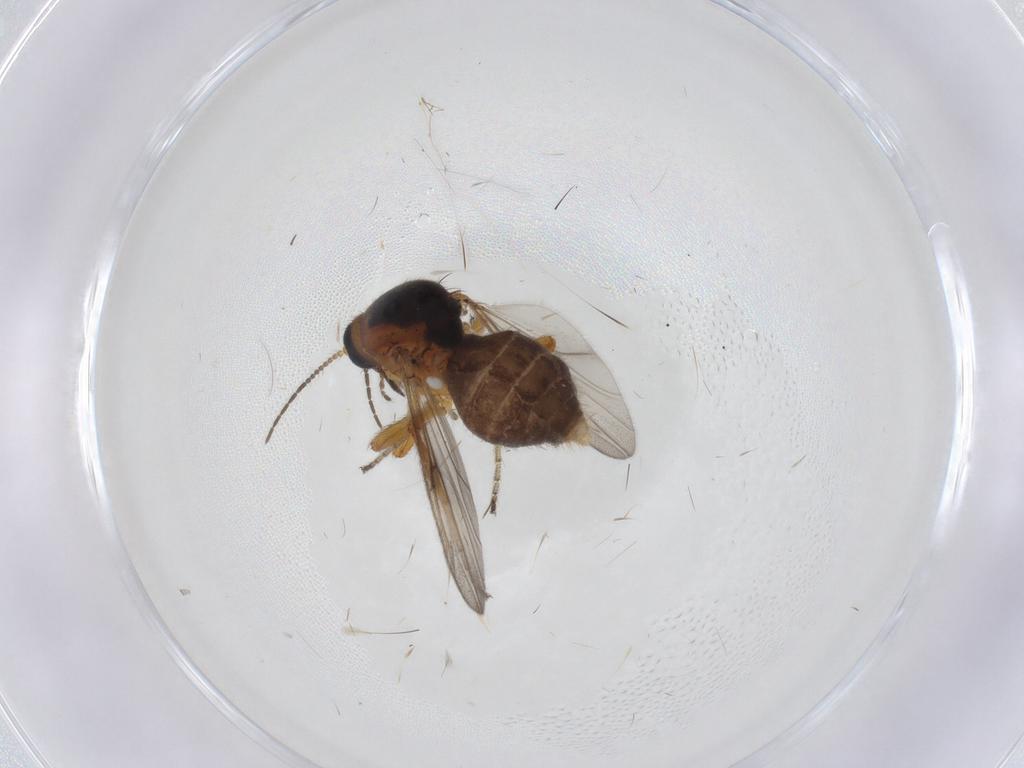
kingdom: Animalia
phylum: Arthropoda
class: Insecta
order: Diptera
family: Ceratopogonidae
